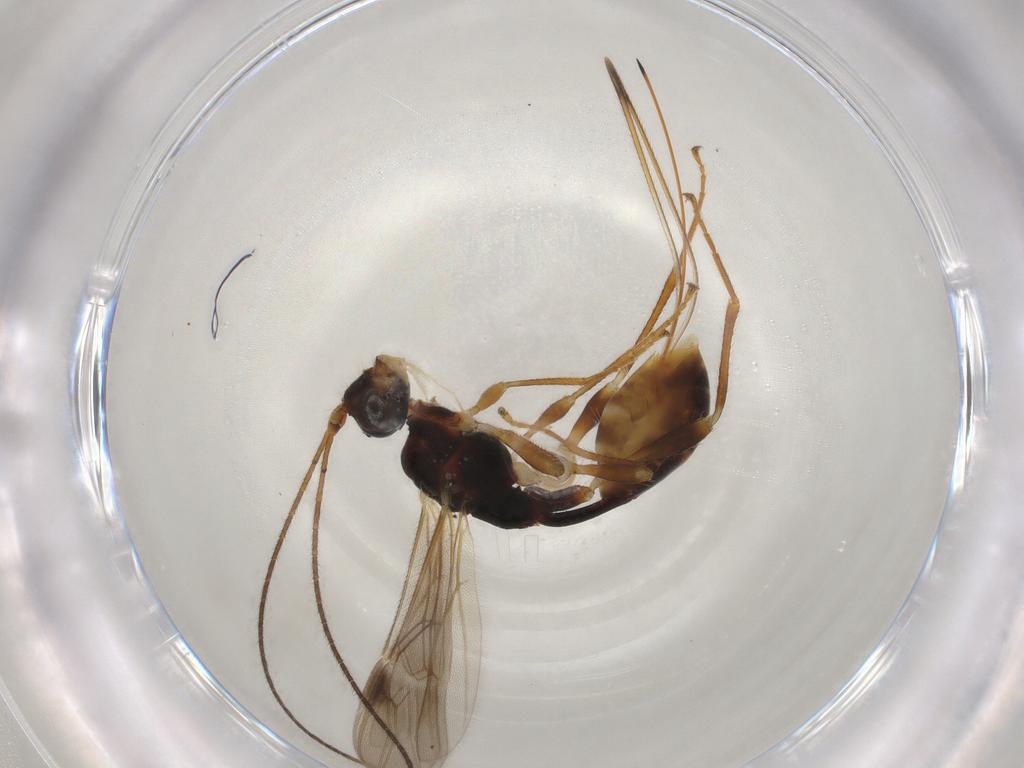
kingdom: Animalia
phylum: Arthropoda
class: Insecta
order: Hymenoptera
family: Braconidae
